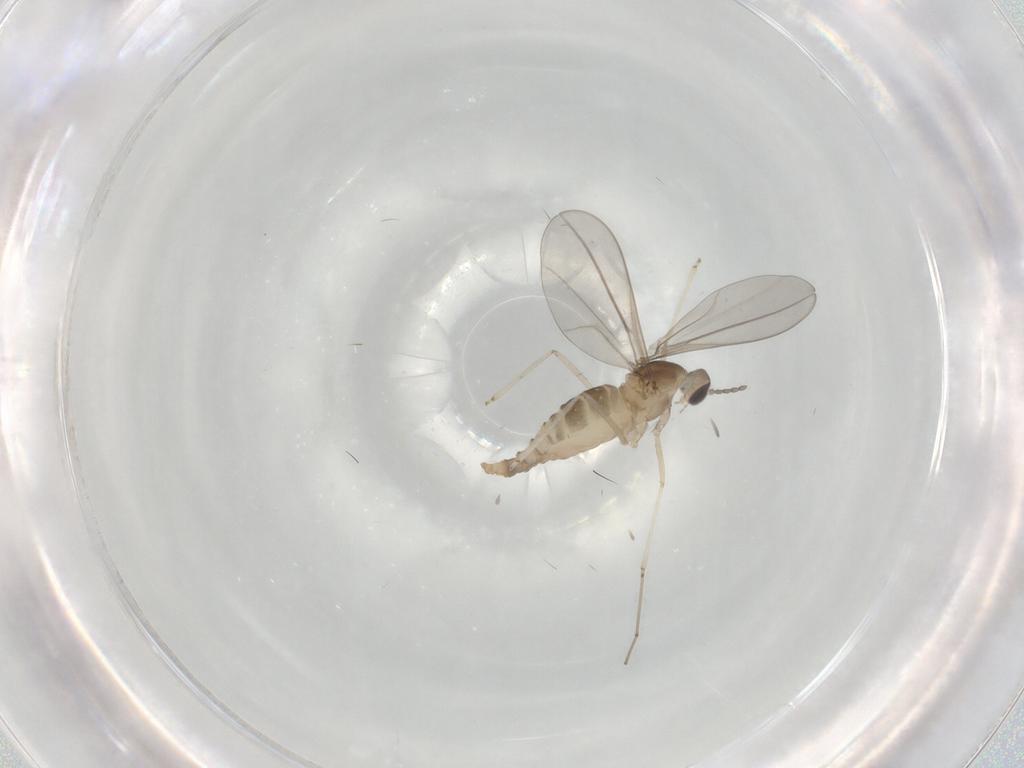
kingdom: Animalia
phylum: Arthropoda
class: Insecta
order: Diptera
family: Cecidomyiidae
